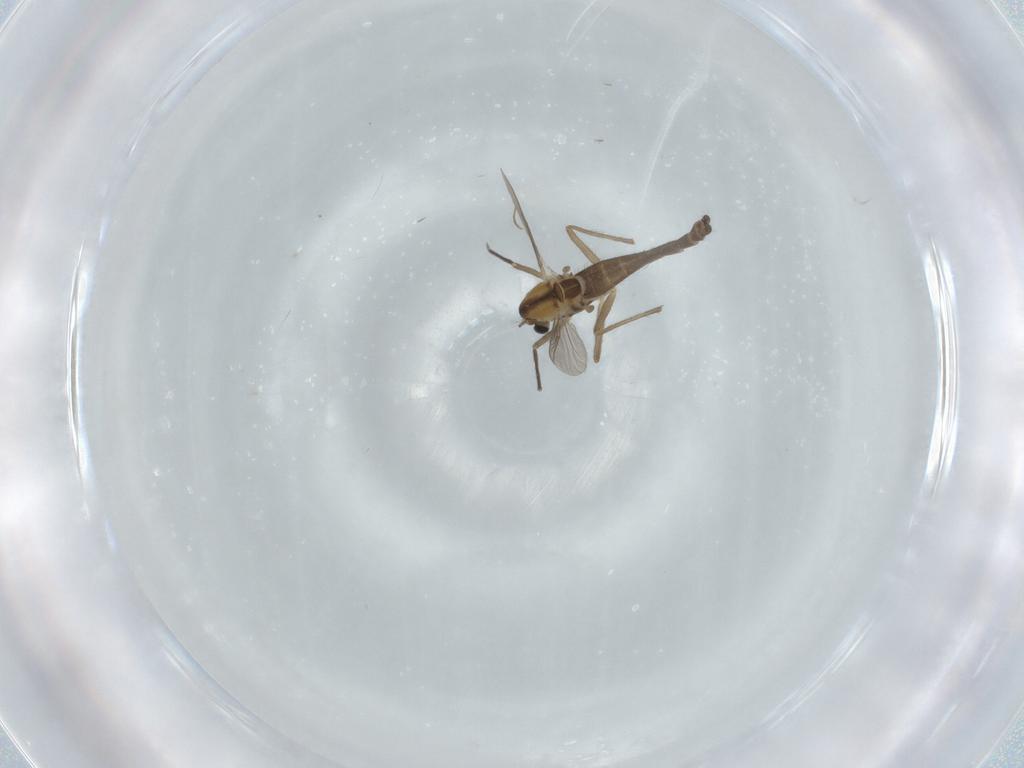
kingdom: Animalia
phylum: Arthropoda
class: Insecta
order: Diptera
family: Chironomidae
